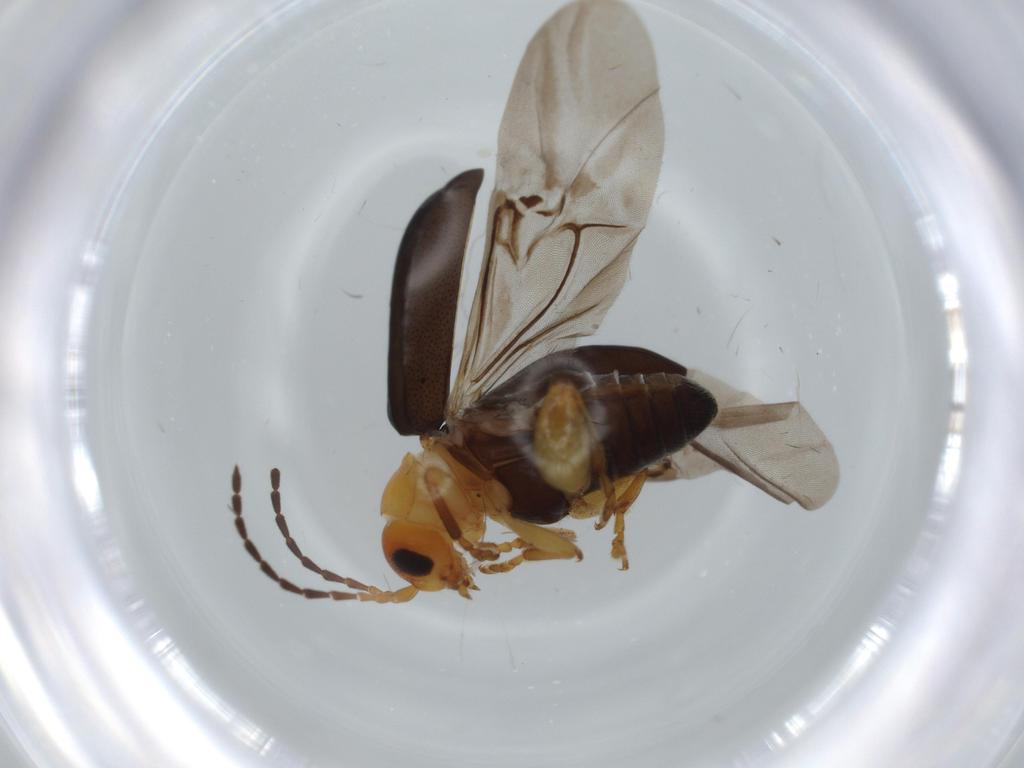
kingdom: Animalia
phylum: Arthropoda
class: Insecta
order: Coleoptera
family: Chrysomelidae
